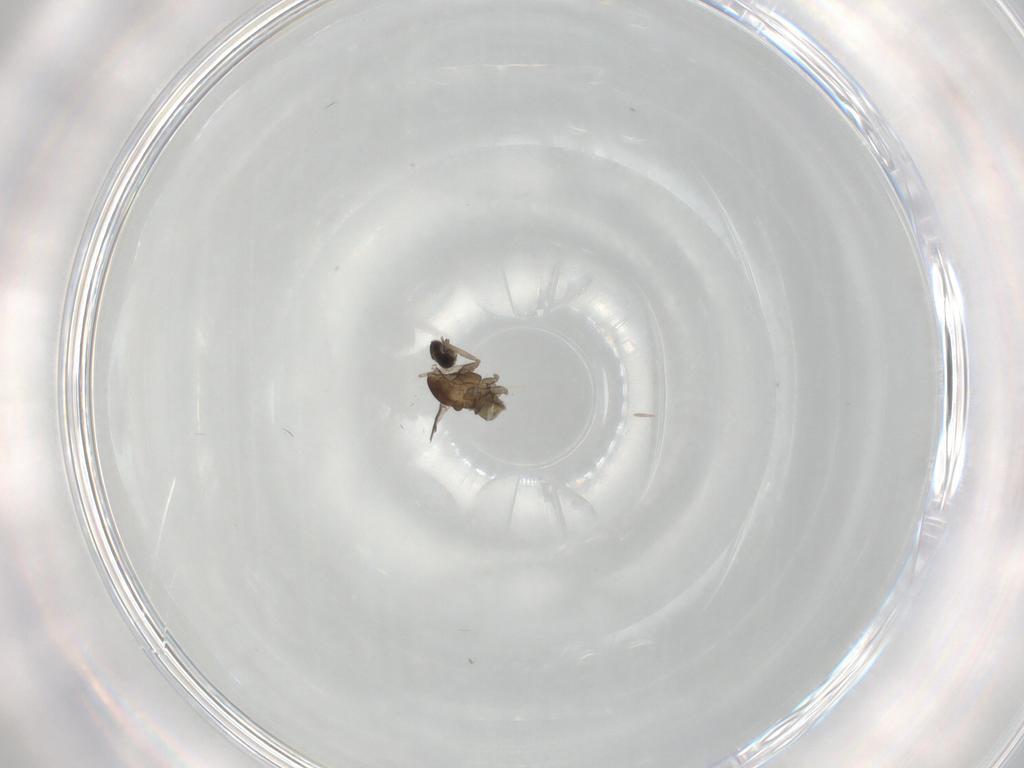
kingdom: Animalia
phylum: Arthropoda
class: Insecta
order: Diptera
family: Cecidomyiidae
